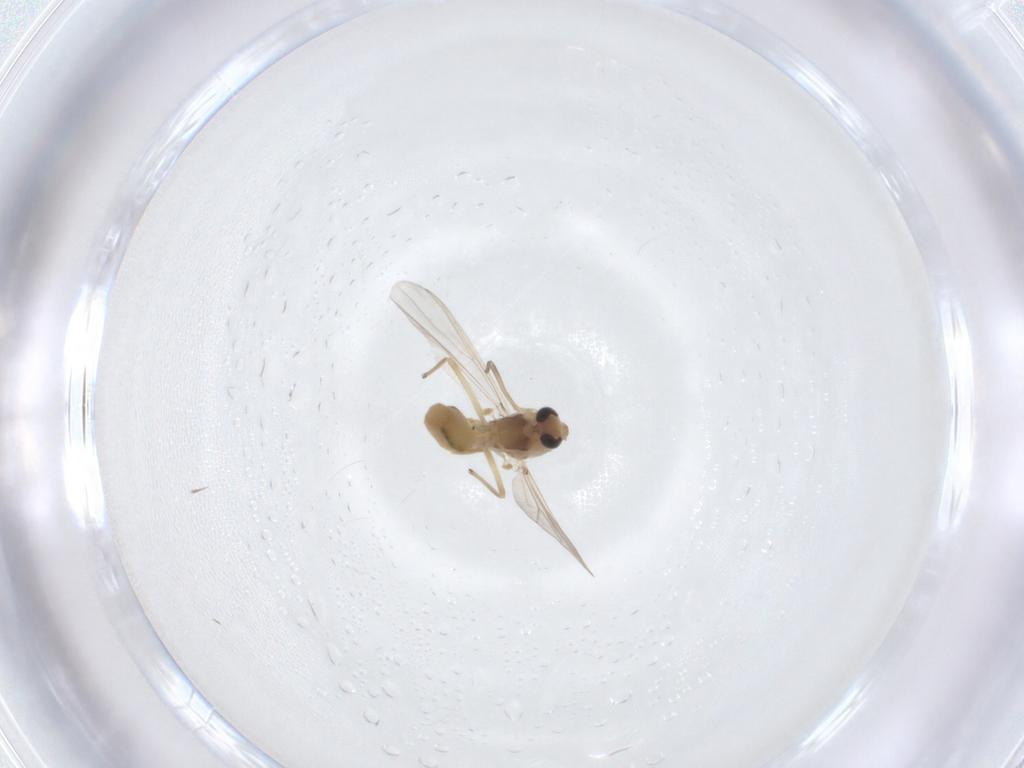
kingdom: Animalia
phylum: Arthropoda
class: Insecta
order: Diptera
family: Chironomidae
